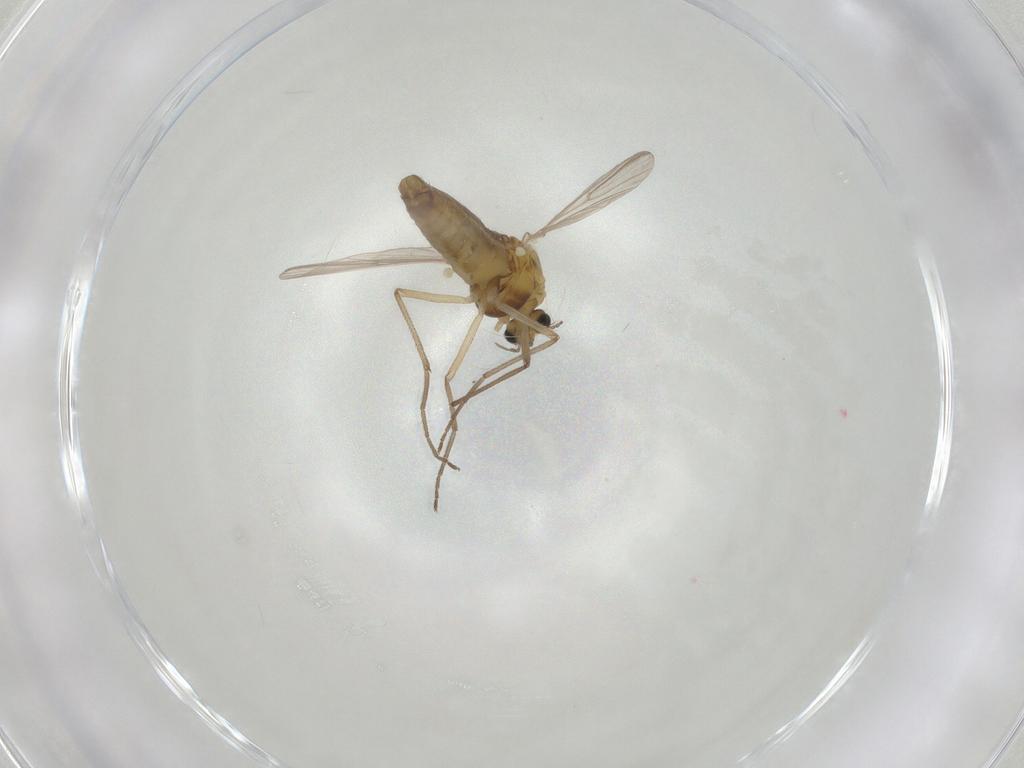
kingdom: Animalia
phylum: Arthropoda
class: Insecta
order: Diptera
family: Chironomidae
